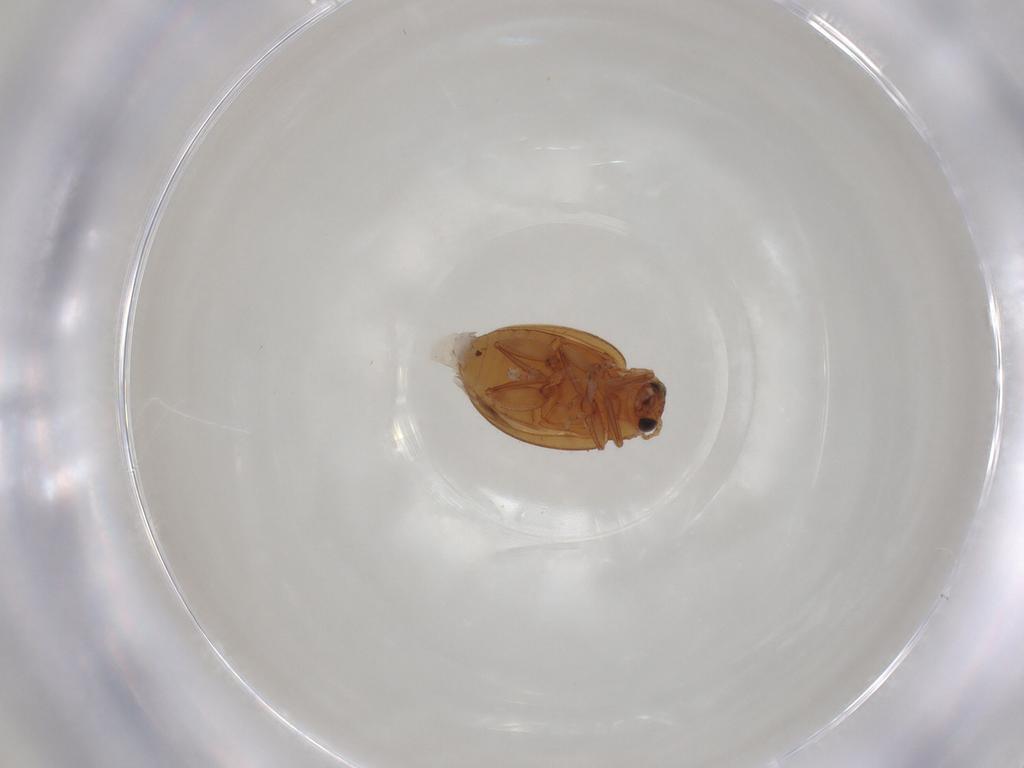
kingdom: Animalia
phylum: Arthropoda
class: Insecta
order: Coleoptera
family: Chrysomelidae
